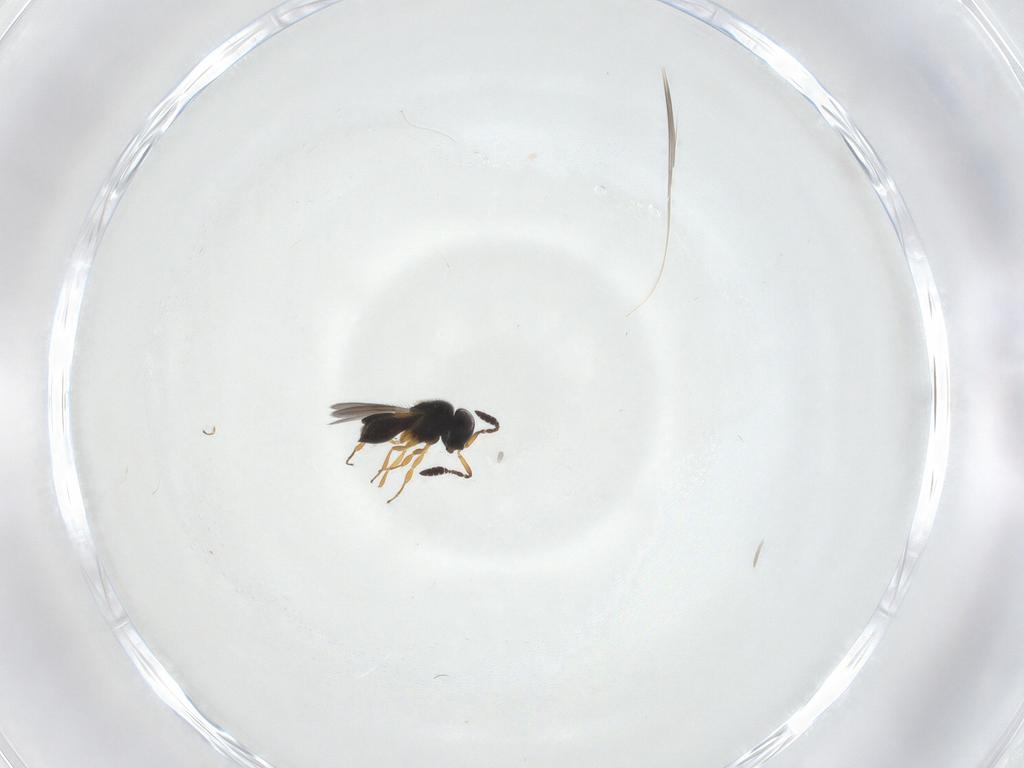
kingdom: Animalia
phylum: Arthropoda
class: Insecta
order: Hymenoptera
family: Scelionidae
